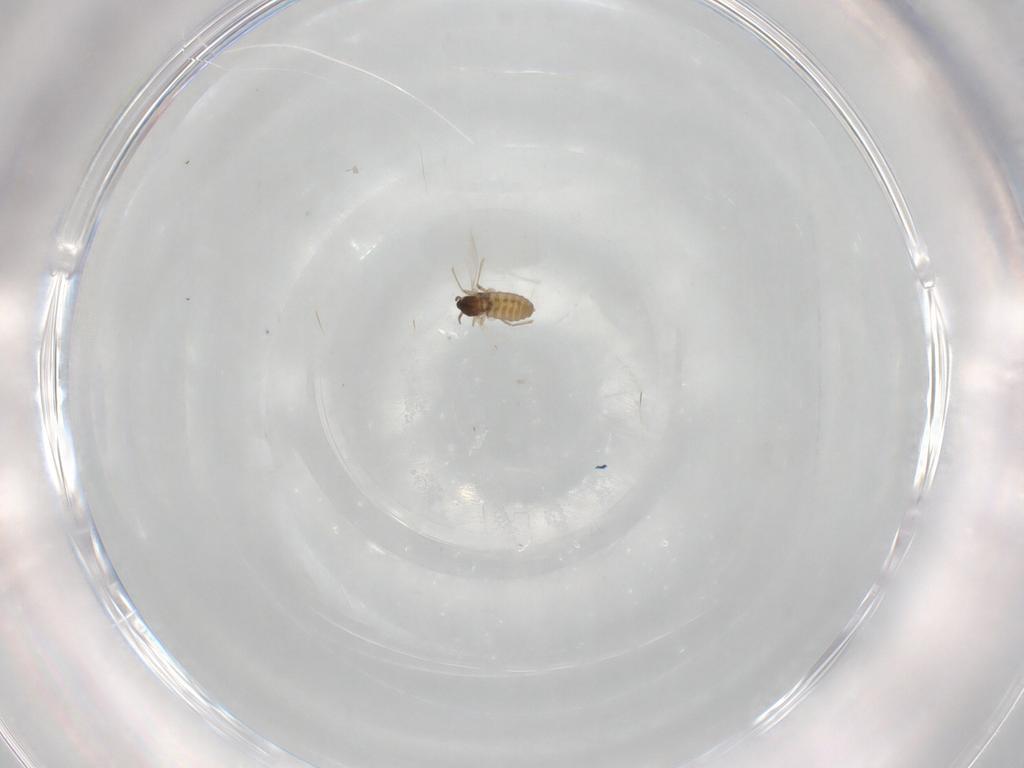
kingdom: Animalia
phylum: Arthropoda
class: Insecta
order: Diptera
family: Cecidomyiidae
